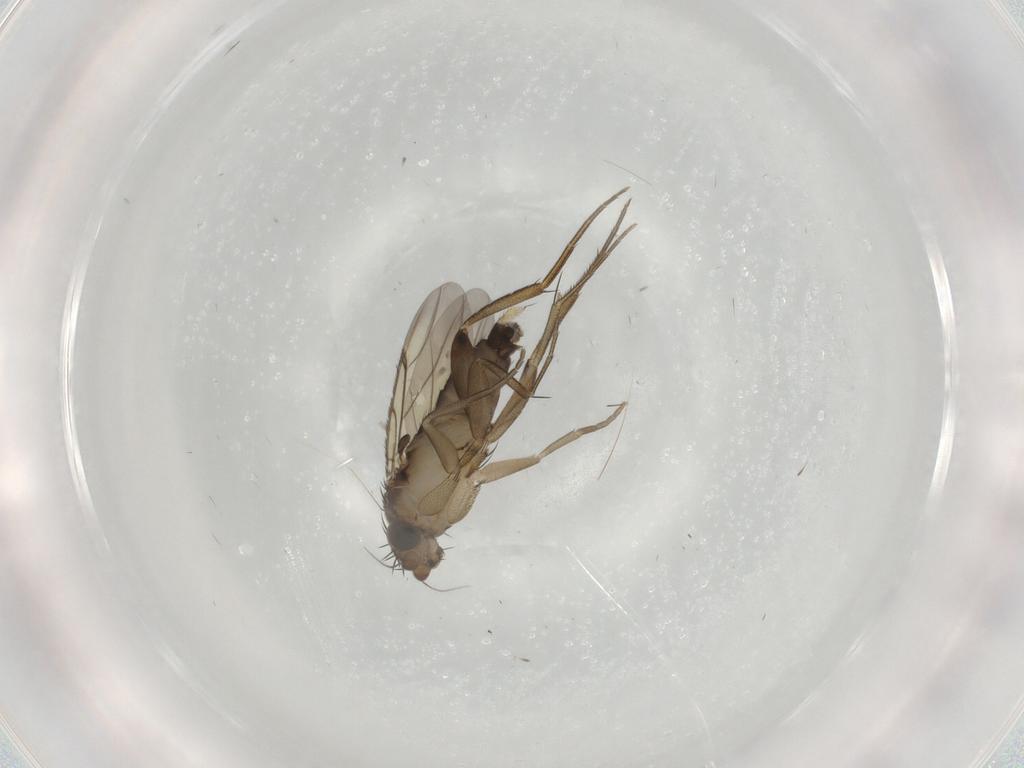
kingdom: Animalia
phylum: Arthropoda
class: Insecta
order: Diptera
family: Phoridae
